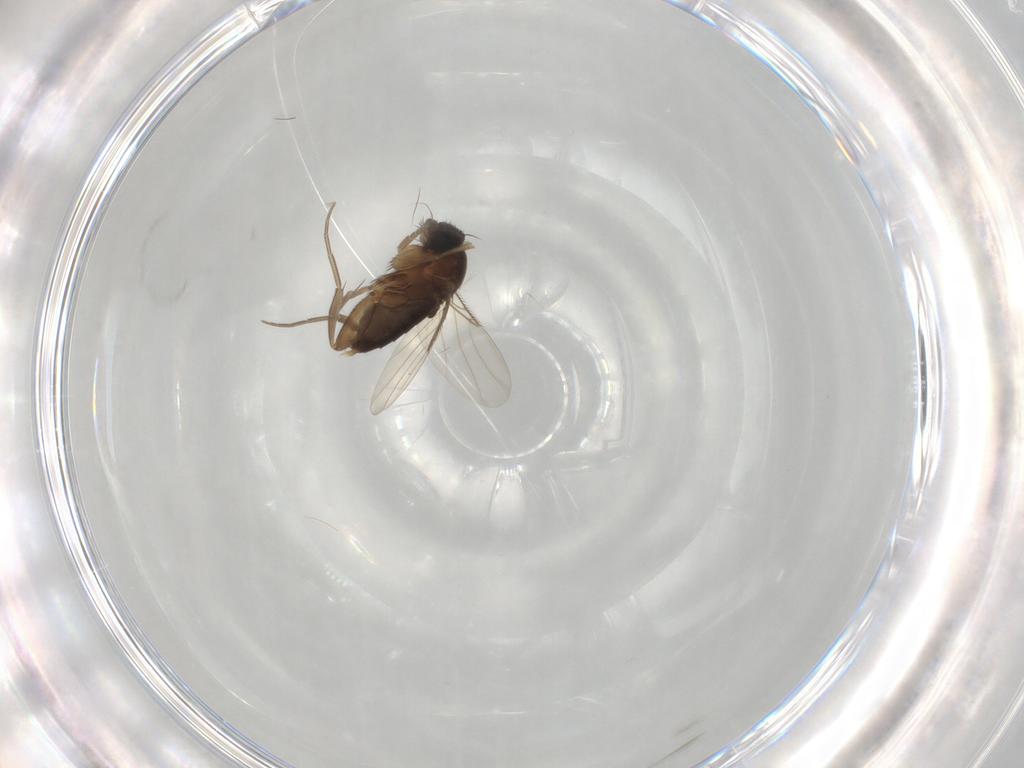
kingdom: Animalia
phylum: Arthropoda
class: Insecta
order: Diptera
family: Phoridae
